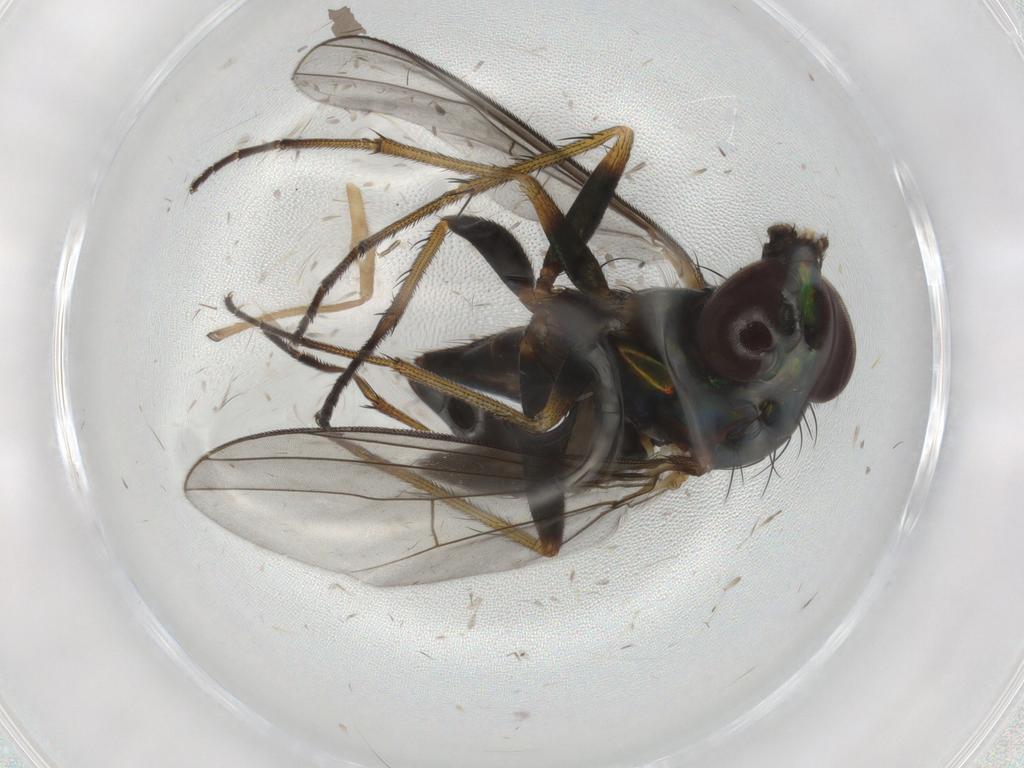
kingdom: Animalia
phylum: Arthropoda
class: Insecta
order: Diptera
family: Dolichopodidae
